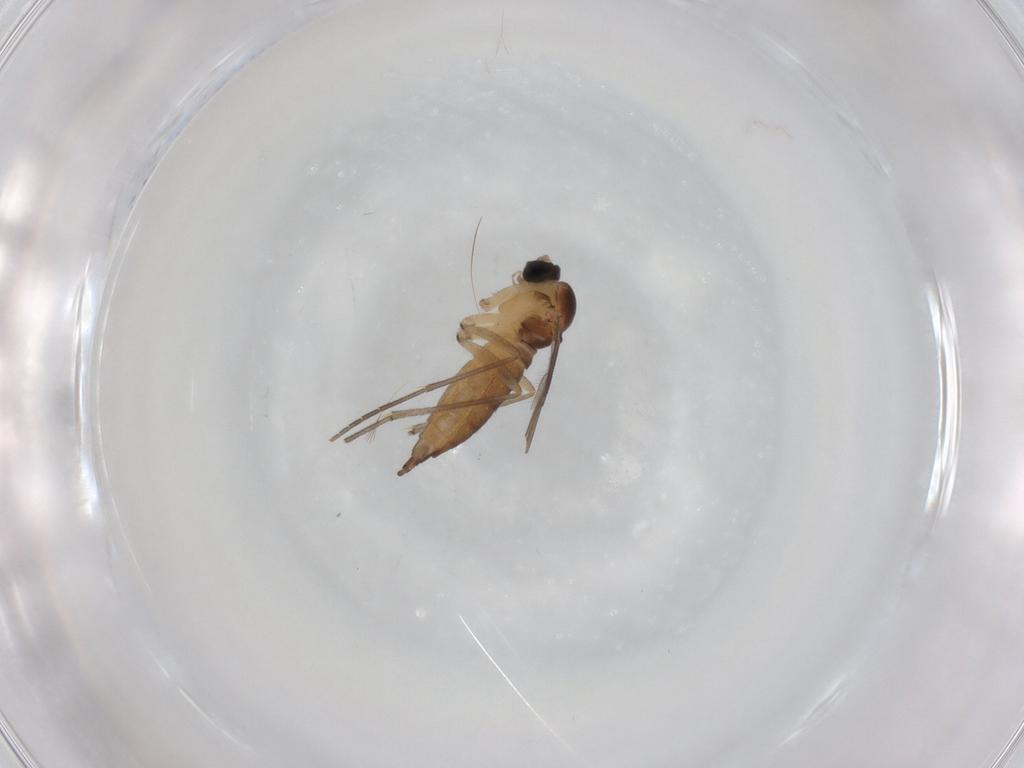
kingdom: Animalia
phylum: Arthropoda
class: Insecta
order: Diptera
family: Sciaridae
